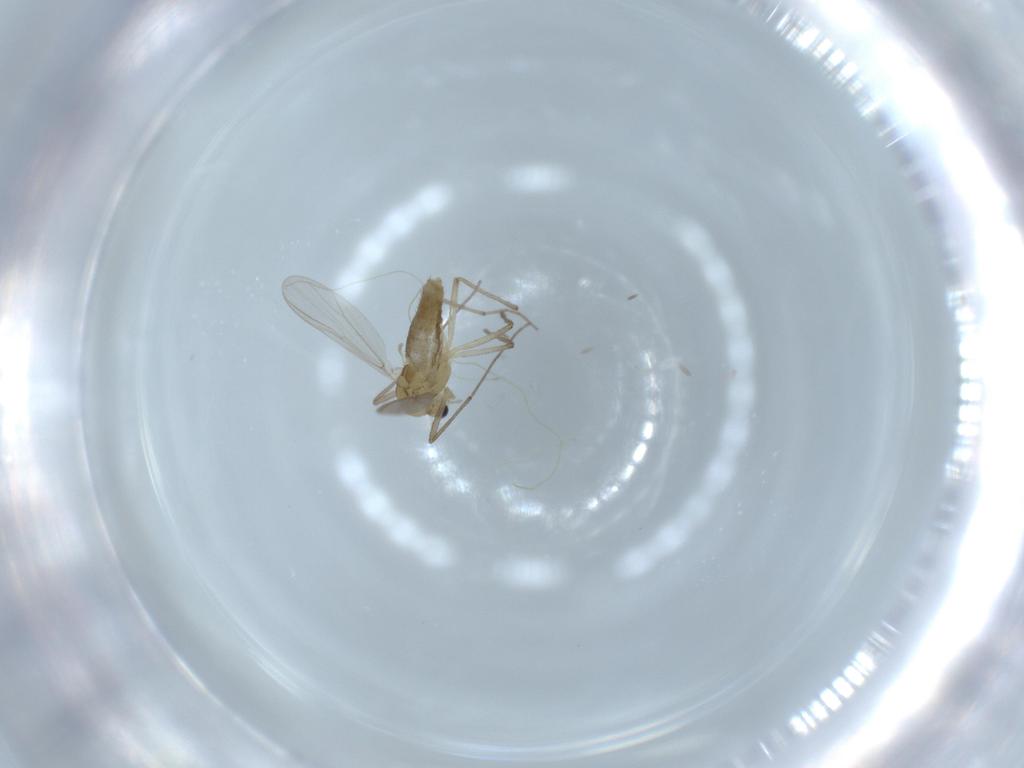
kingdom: Animalia
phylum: Arthropoda
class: Insecta
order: Diptera
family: Chironomidae
